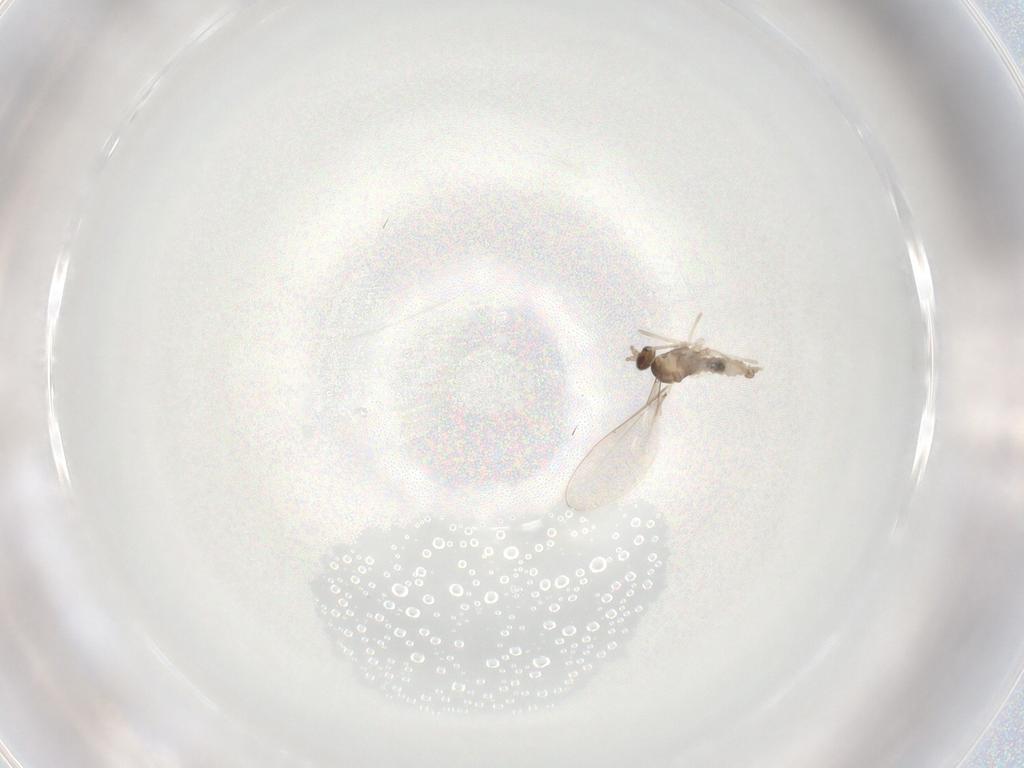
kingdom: Animalia
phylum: Arthropoda
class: Insecta
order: Diptera
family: Cecidomyiidae
